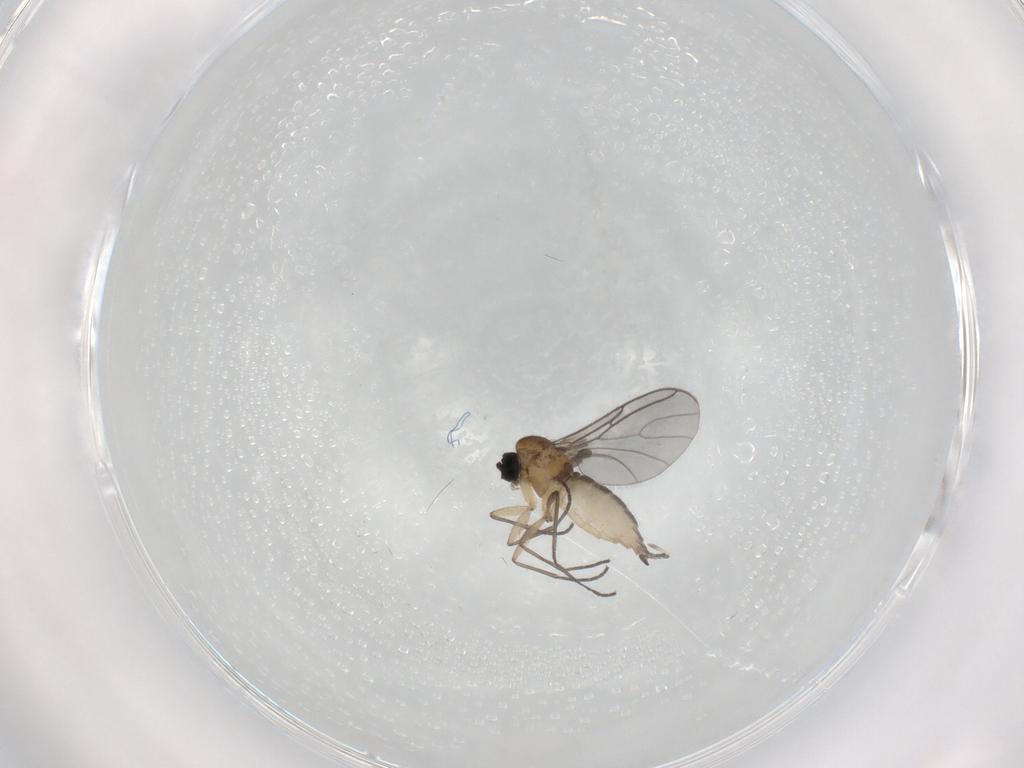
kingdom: Animalia
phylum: Arthropoda
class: Insecta
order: Diptera
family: Sciaridae
